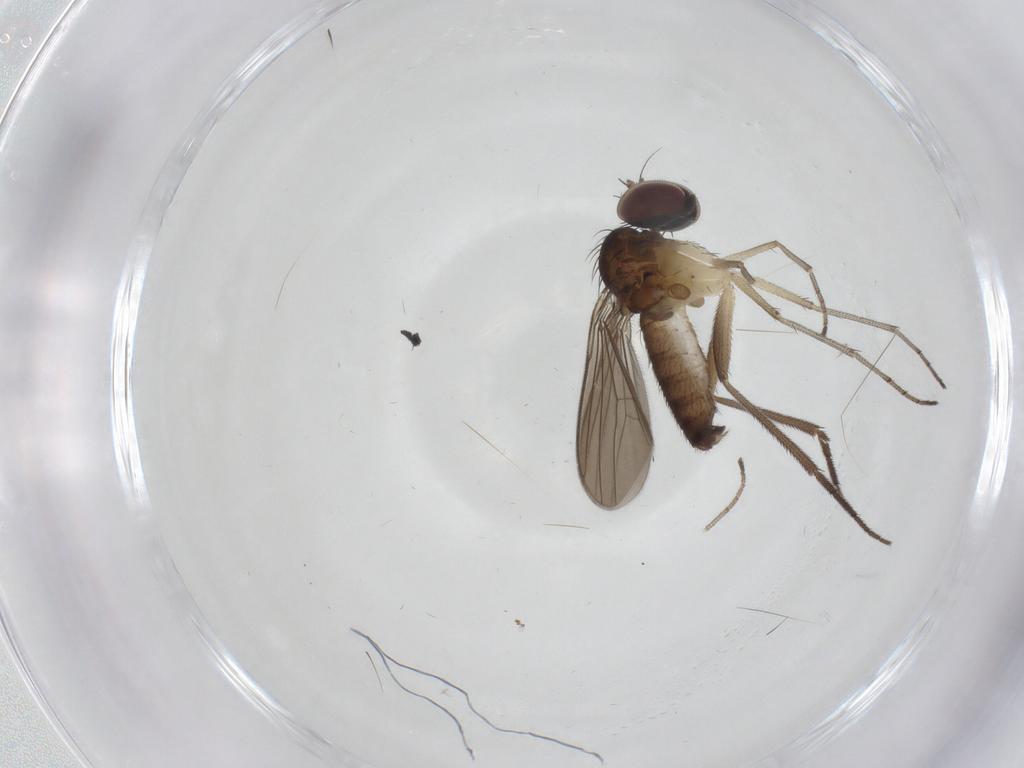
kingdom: Animalia
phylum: Arthropoda
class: Insecta
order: Diptera
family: Dolichopodidae
